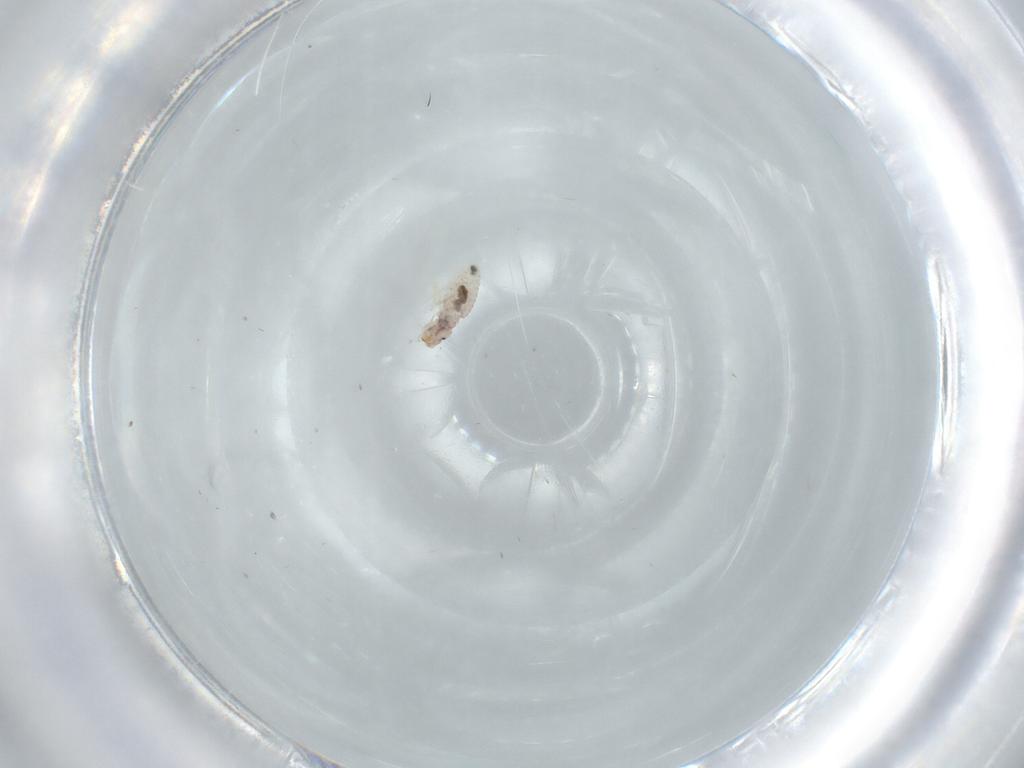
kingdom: Animalia
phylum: Arthropoda
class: Insecta
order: Psocodea
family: Liposcelididae
